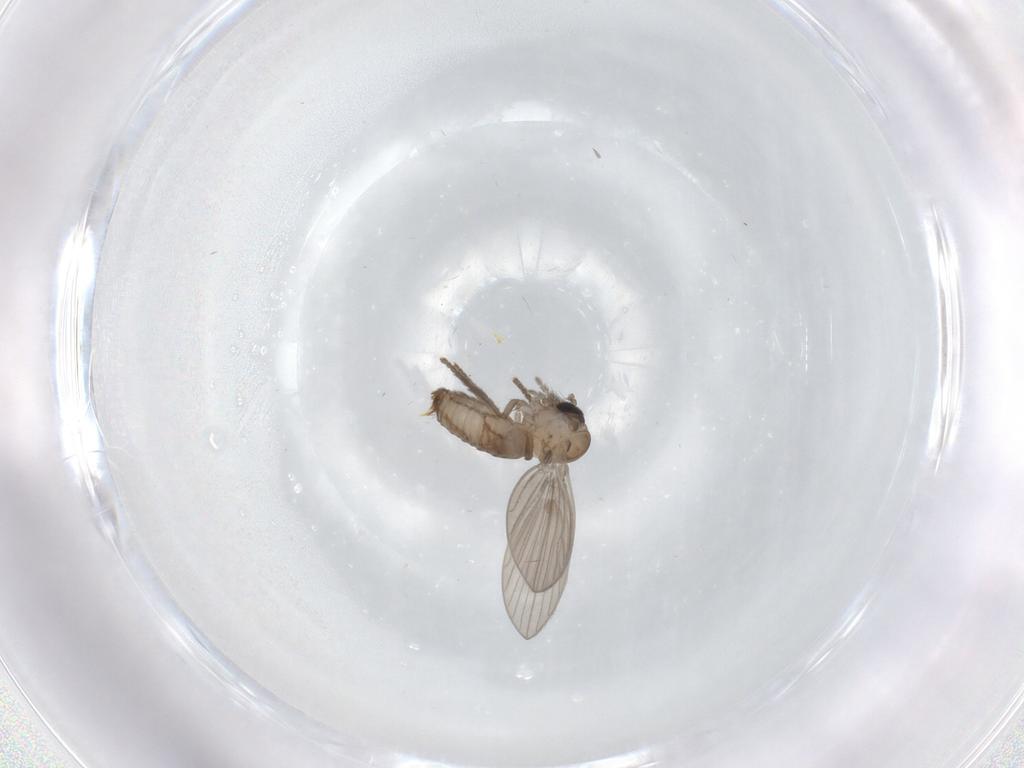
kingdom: Animalia
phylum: Arthropoda
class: Insecta
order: Diptera
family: Psychodidae
